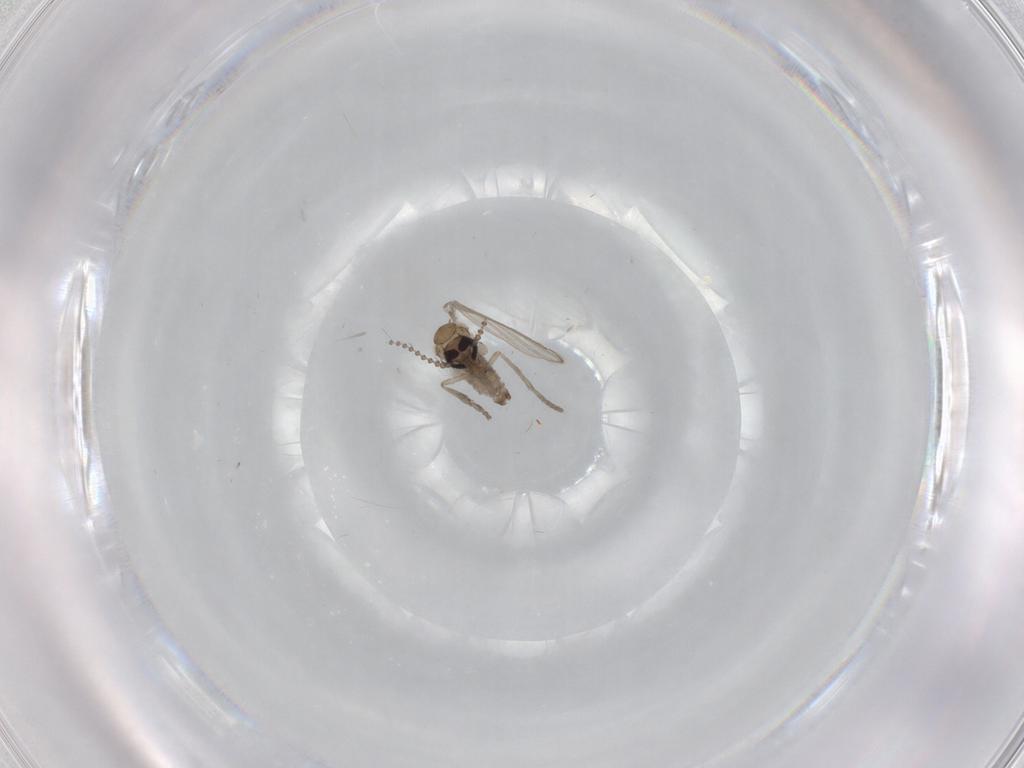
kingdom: Animalia
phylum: Arthropoda
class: Insecta
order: Diptera
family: Psychodidae
